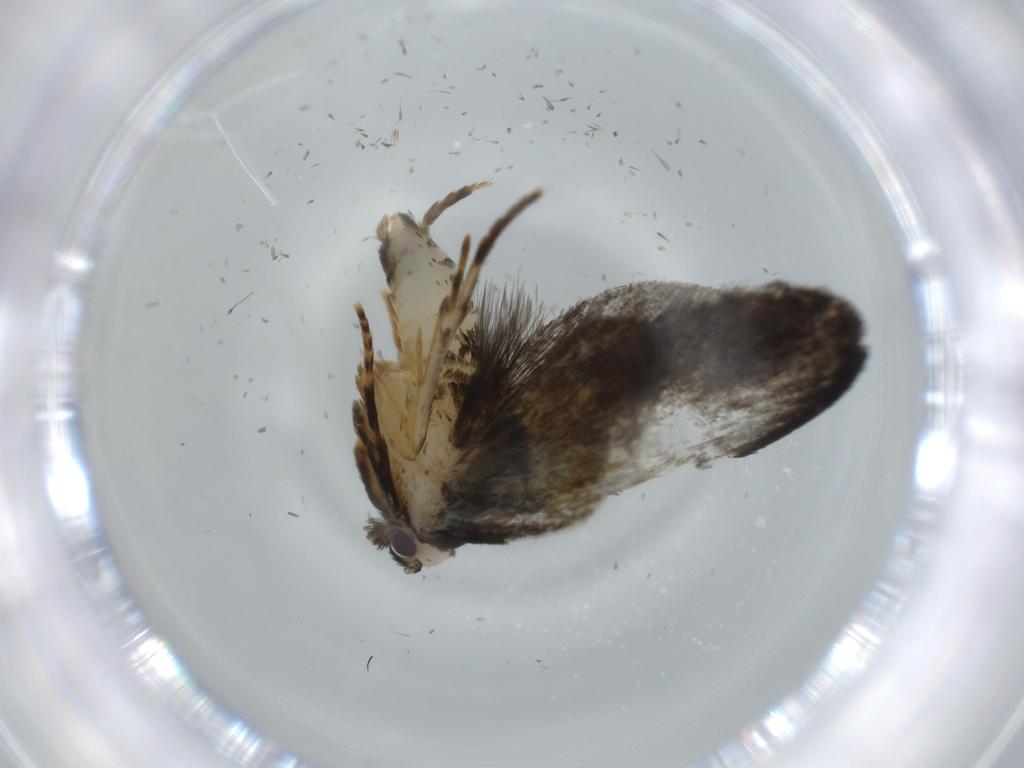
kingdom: Animalia
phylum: Arthropoda
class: Insecta
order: Lepidoptera
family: Psychidae
